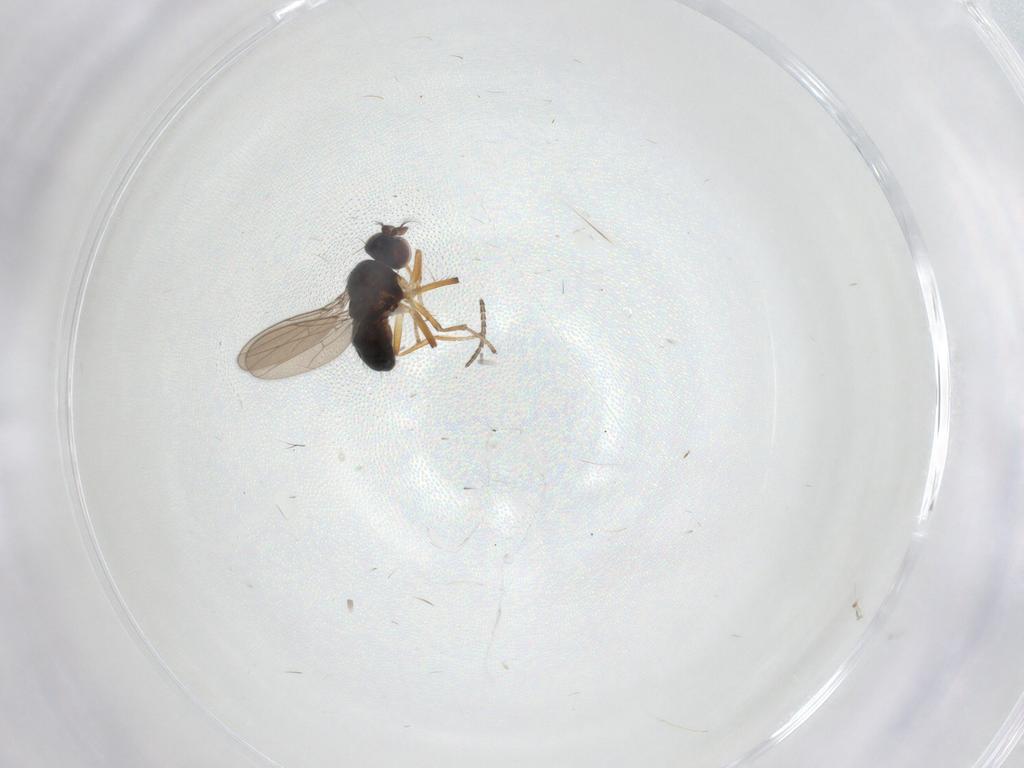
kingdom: Animalia
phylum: Arthropoda
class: Insecta
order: Diptera
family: Ephydridae
